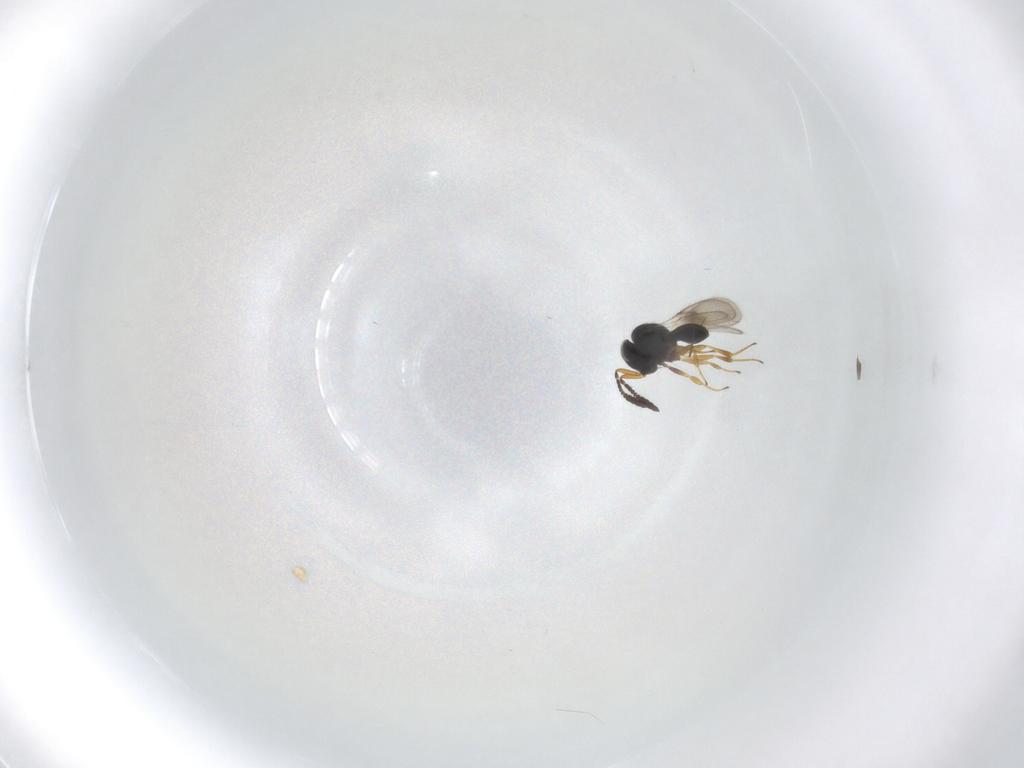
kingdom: Animalia
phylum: Arthropoda
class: Insecta
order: Hymenoptera
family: Scelionidae
